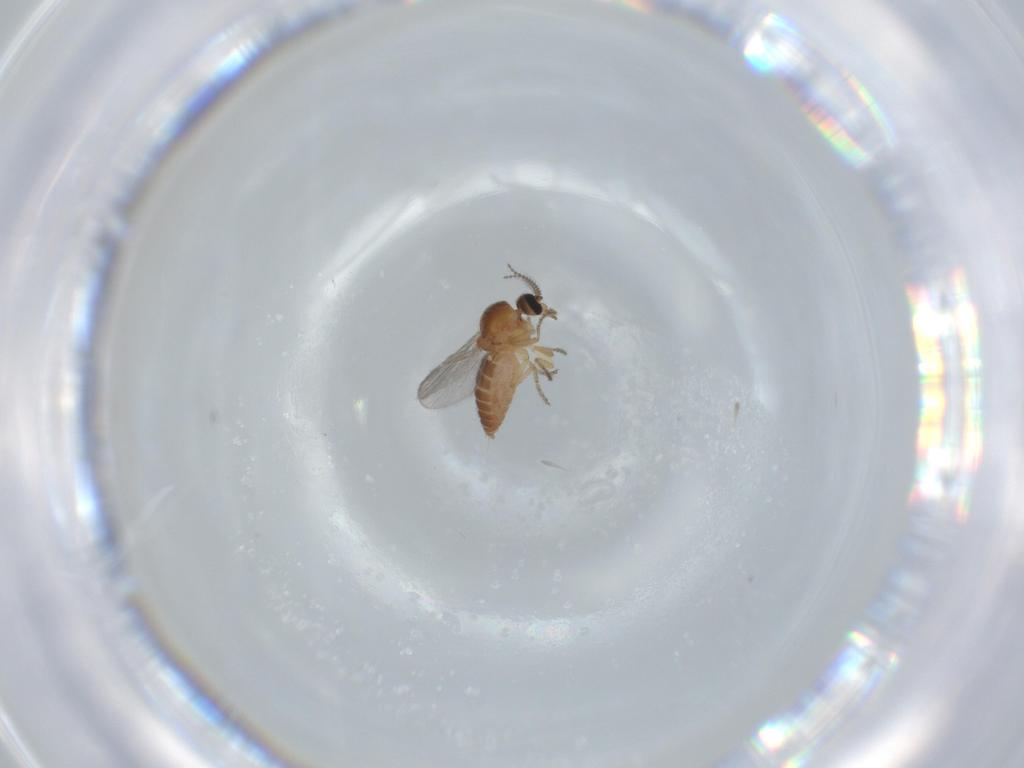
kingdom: Animalia
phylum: Arthropoda
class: Insecta
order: Diptera
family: Ceratopogonidae
